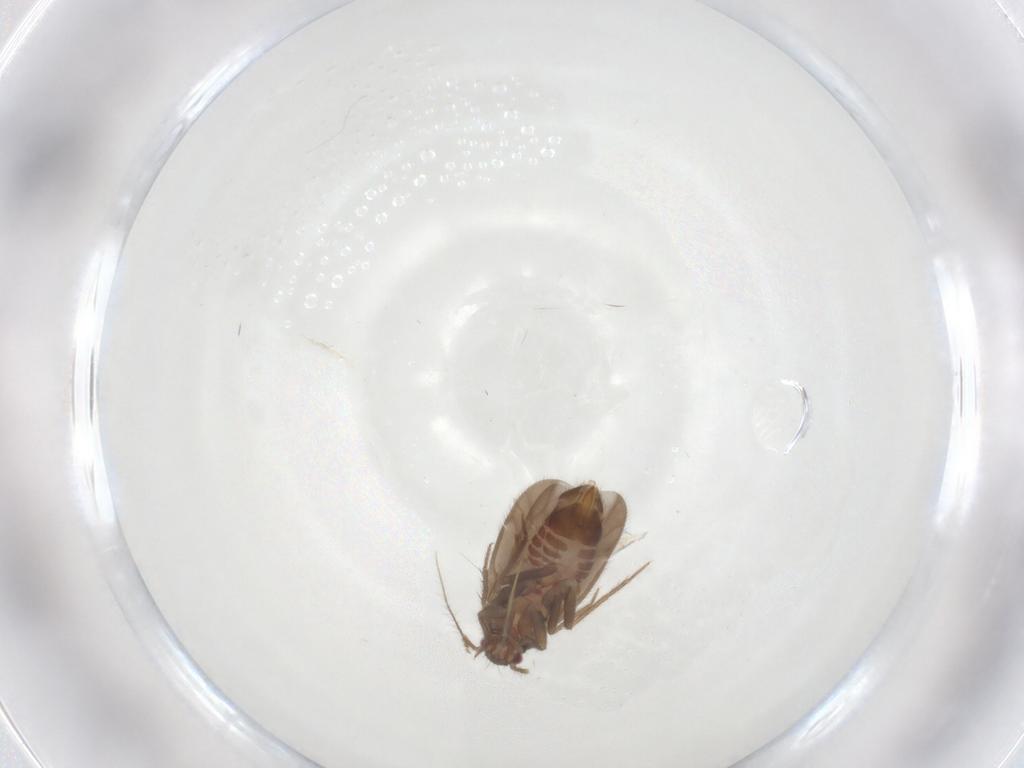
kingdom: Animalia
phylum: Arthropoda
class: Insecta
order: Hemiptera
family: Ceratocombidae
